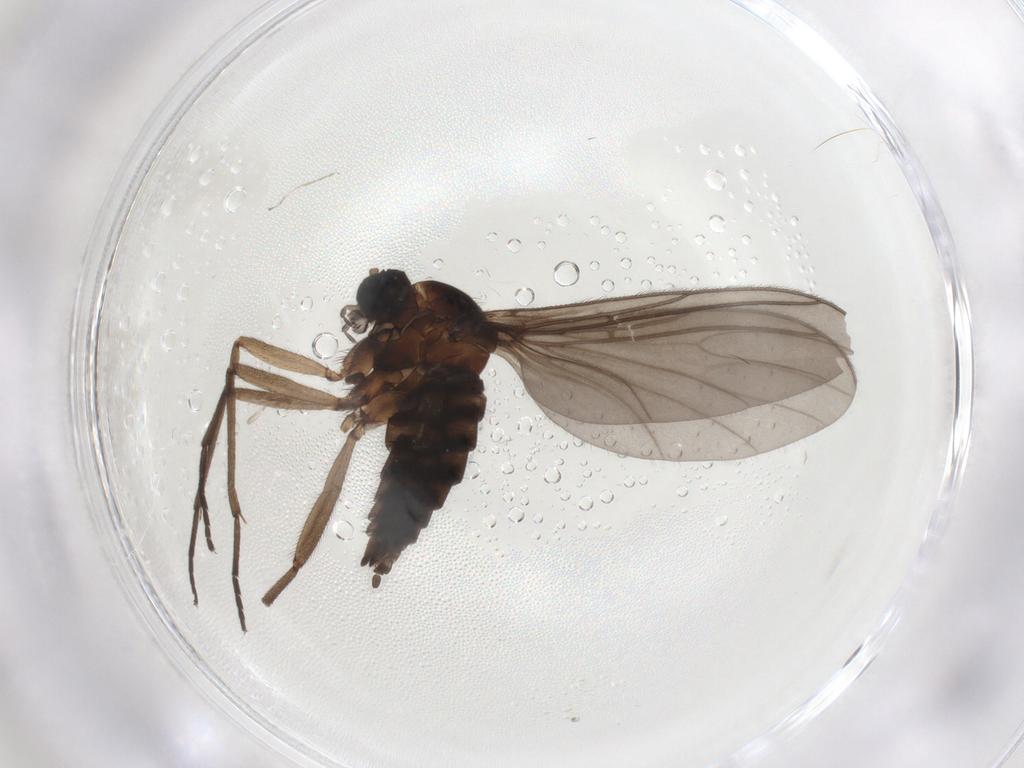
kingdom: Animalia
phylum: Arthropoda
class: Insecta
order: Diptera
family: Sciaridae
